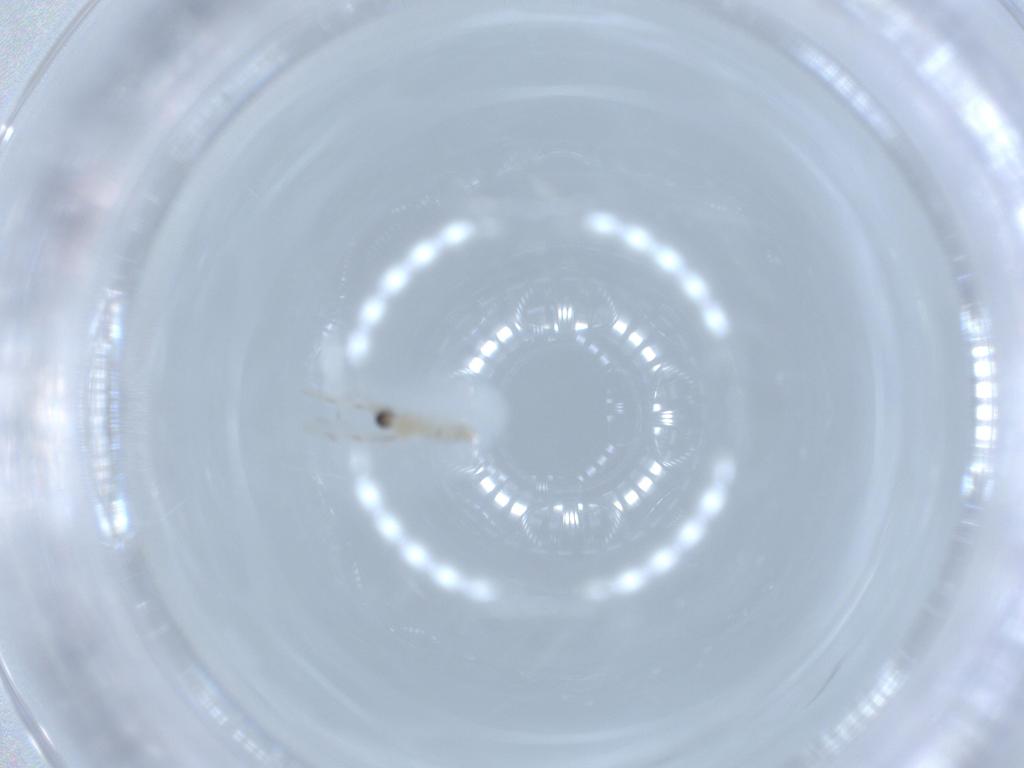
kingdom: Animalia
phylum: Arthropoda
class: Insecta
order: Diptera
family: Cecidomyiidae
